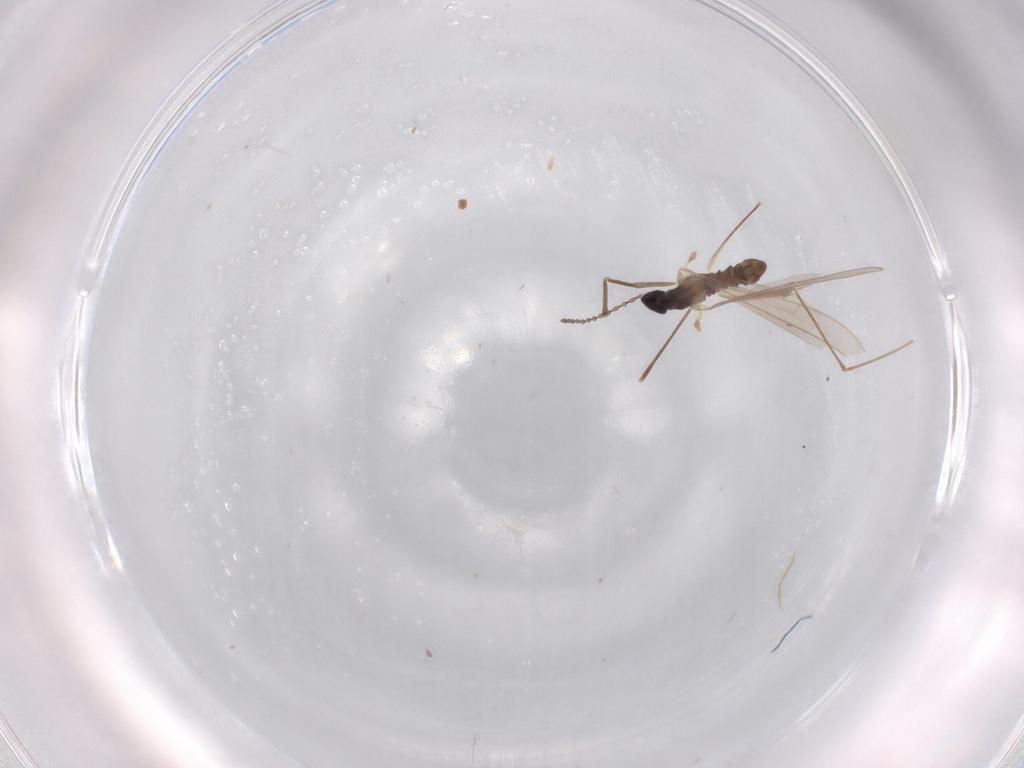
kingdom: Animalia
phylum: Arthropoda
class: Insecta
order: Diptera
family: Cecidomyiidae
